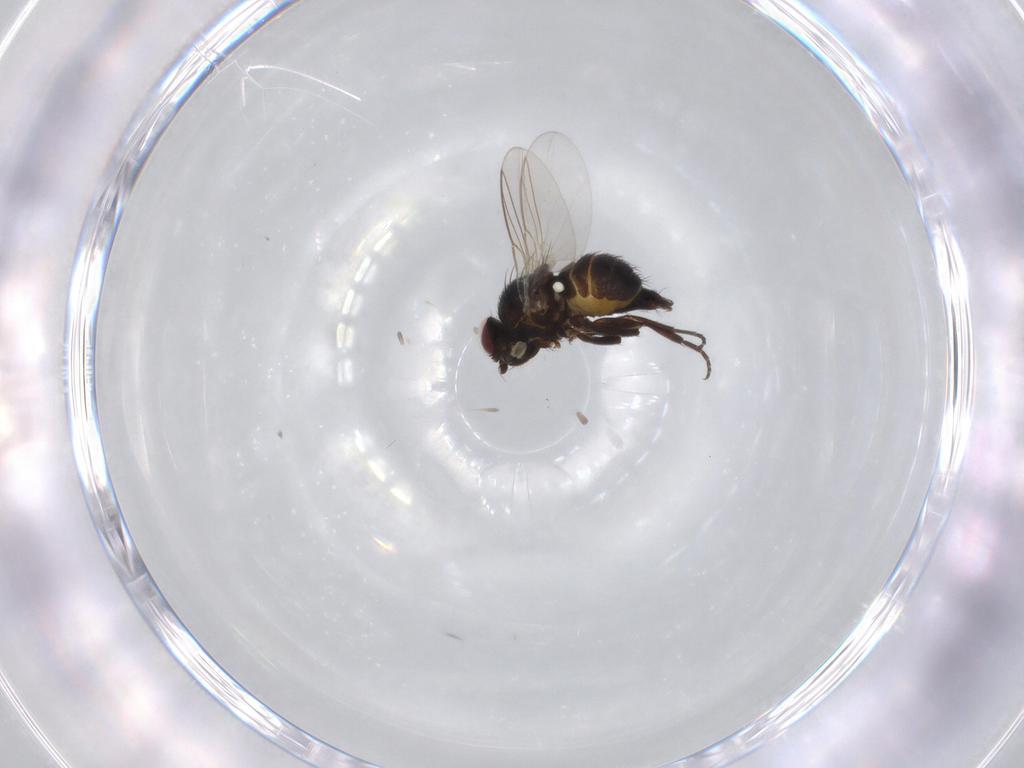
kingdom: Animalia
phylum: Arthropoda
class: Insecta
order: Diptera
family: Agromyzidae
